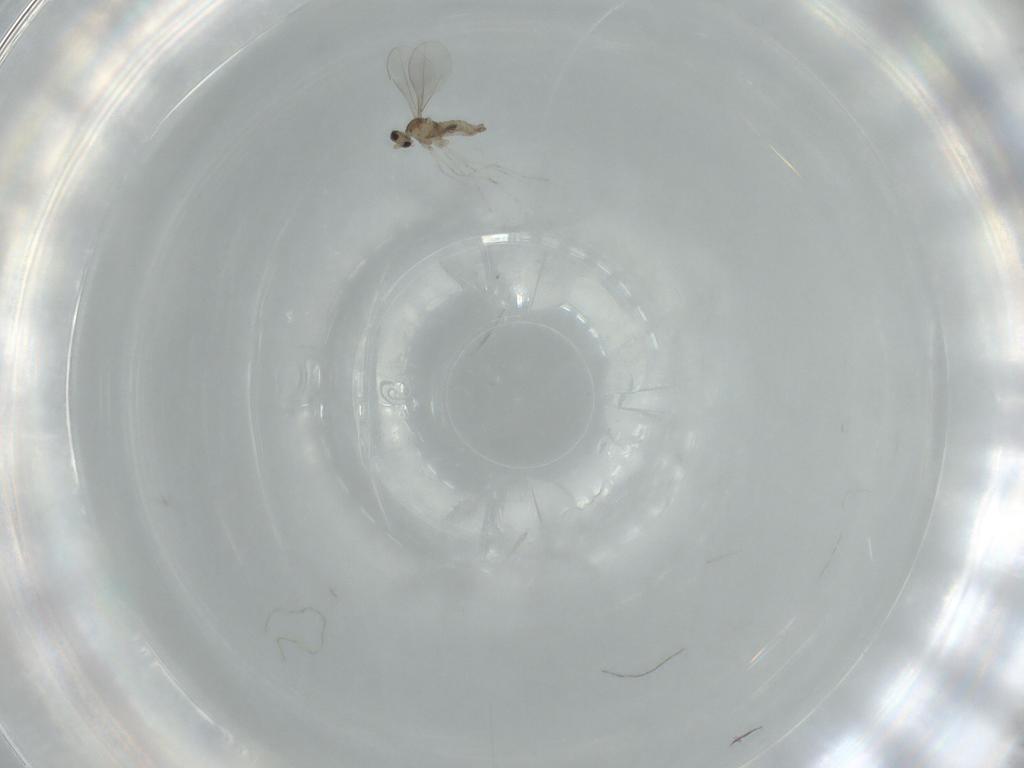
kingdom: Animalia
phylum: Arthropoda
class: Insecta
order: Diptera
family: Cecidomyiidae
